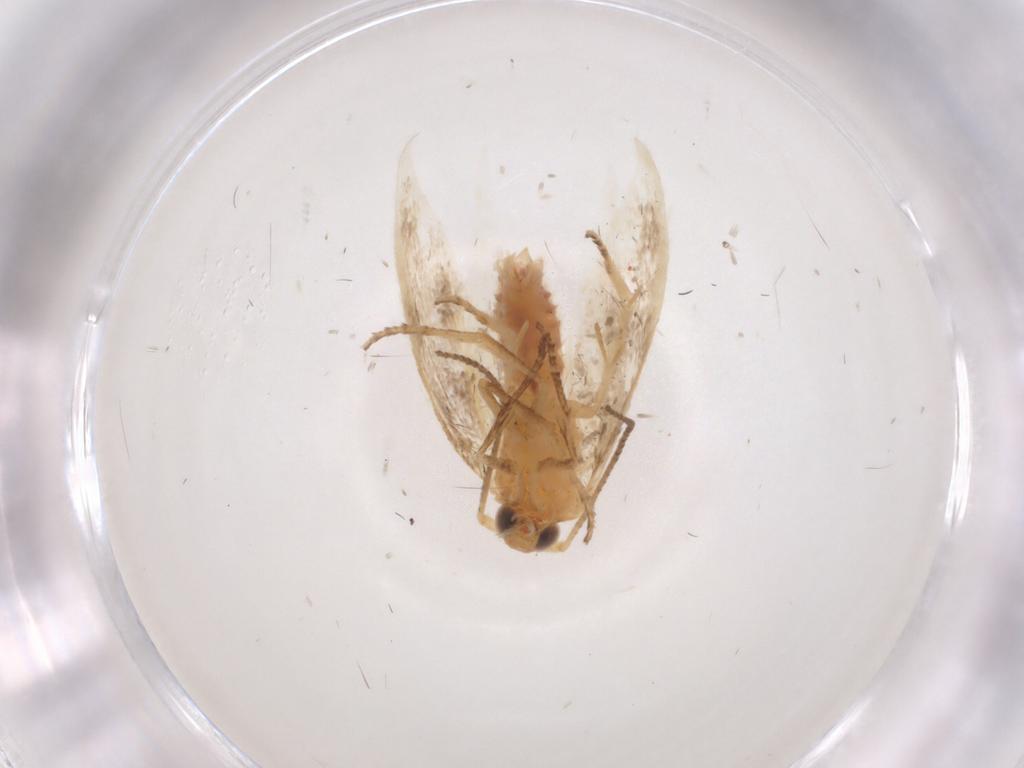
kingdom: Animalia
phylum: Arthropoda
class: Insecta
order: Lepidoptera
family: Argyresthiidae
